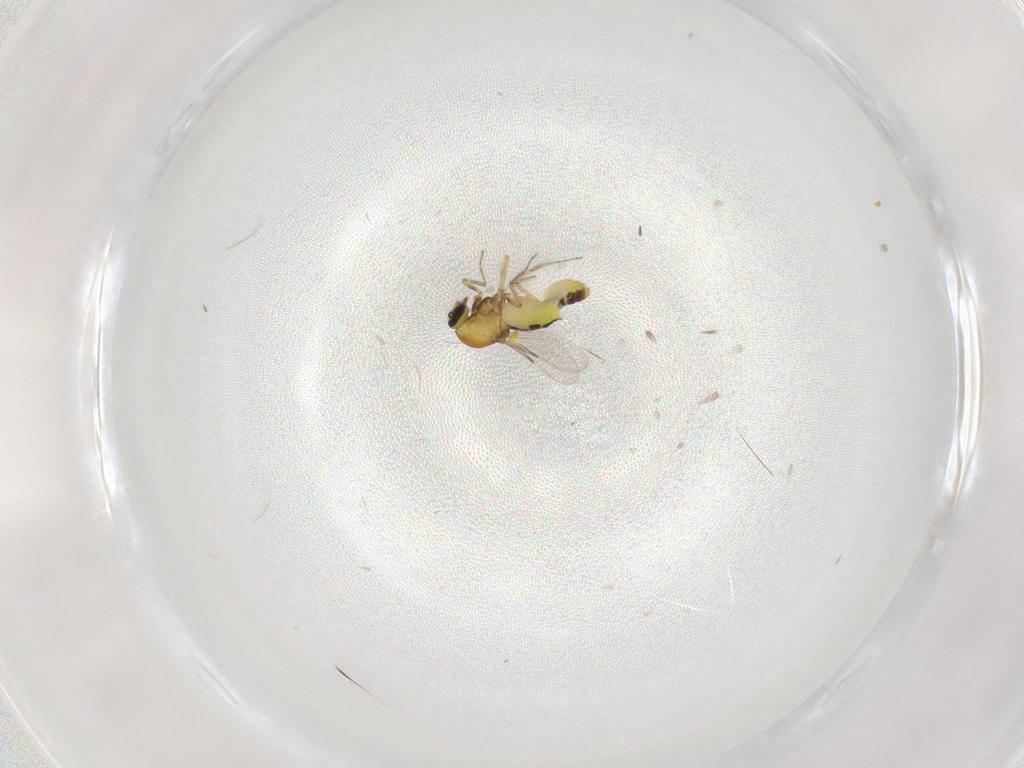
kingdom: Animalia
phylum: Arthropoda
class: Insecta
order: Diptera
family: Ceratopogonidae
